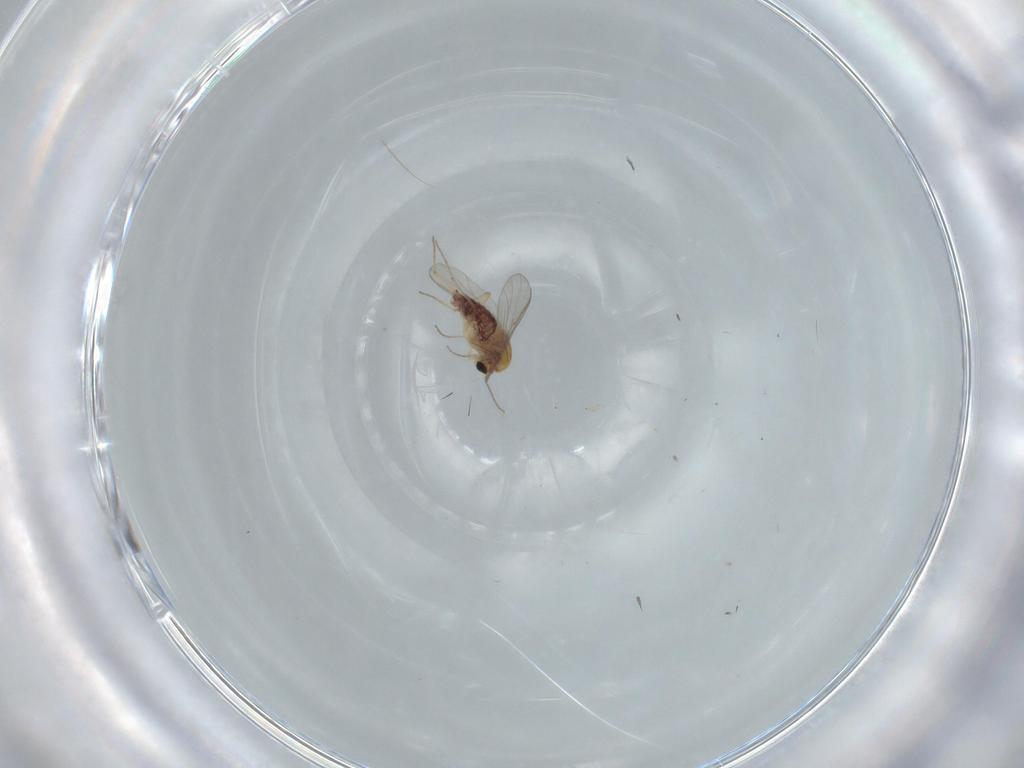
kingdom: Animalia
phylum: Arthropoda
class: Insecta
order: Diptera
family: Chironomidae
